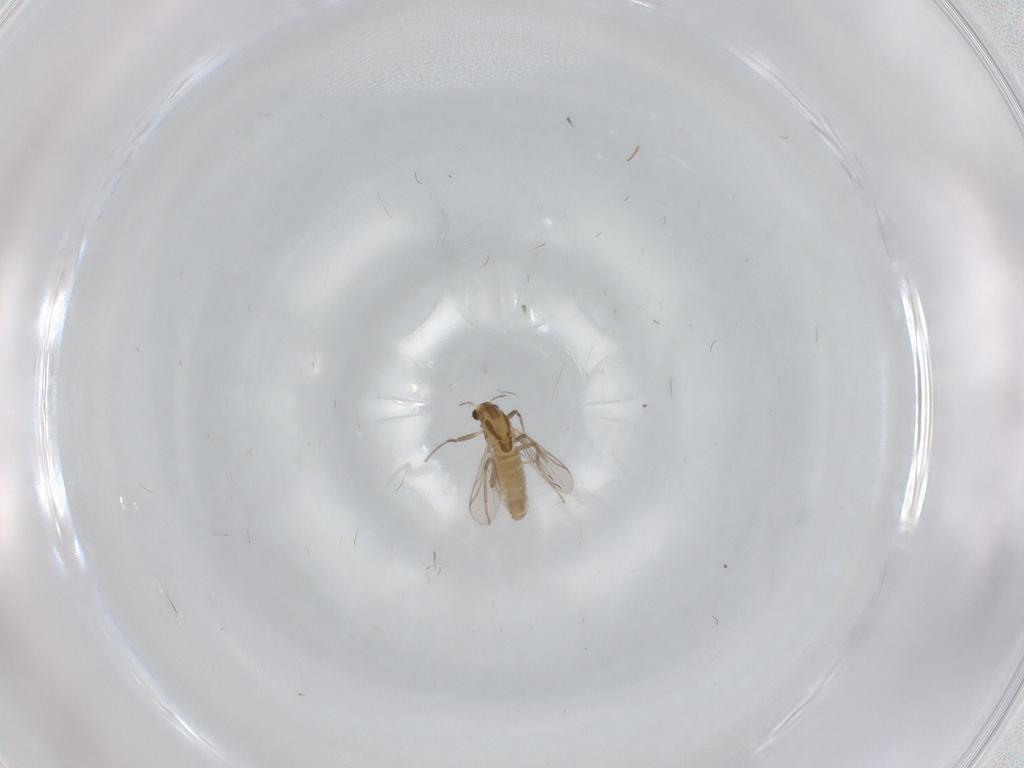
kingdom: Animalia
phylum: Arthropoda
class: Insecta
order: Diptera
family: Chironomidae
